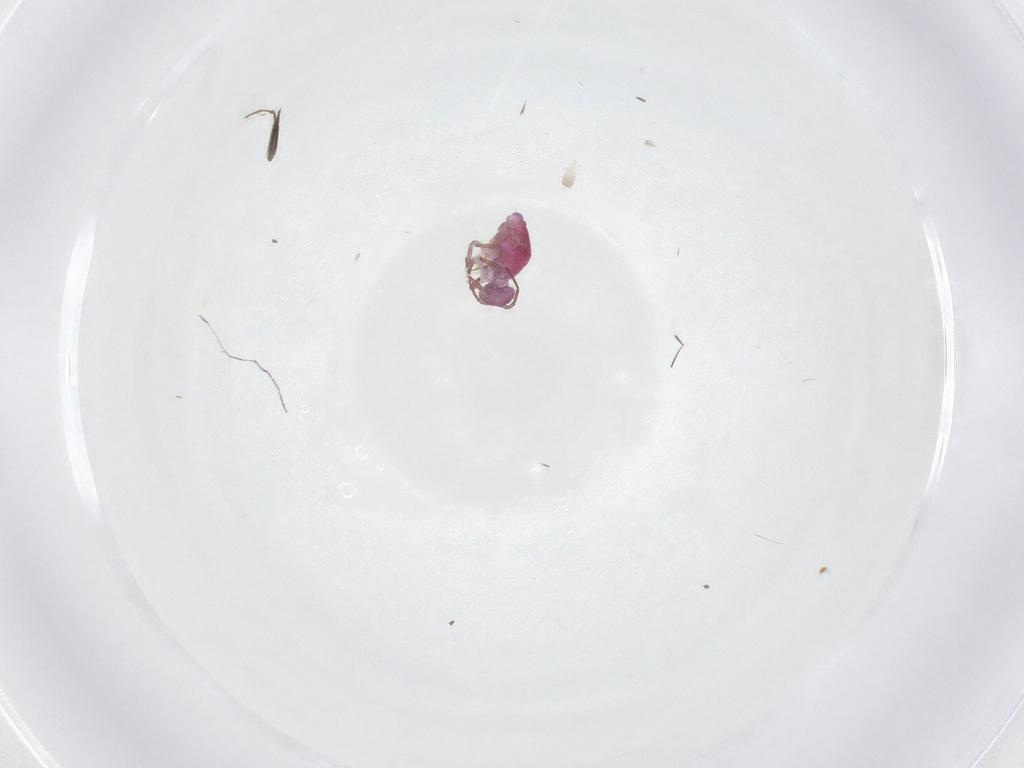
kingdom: Animalia
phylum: Arthropoda
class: Collembola
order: Symphypleona
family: Sminthuridae
